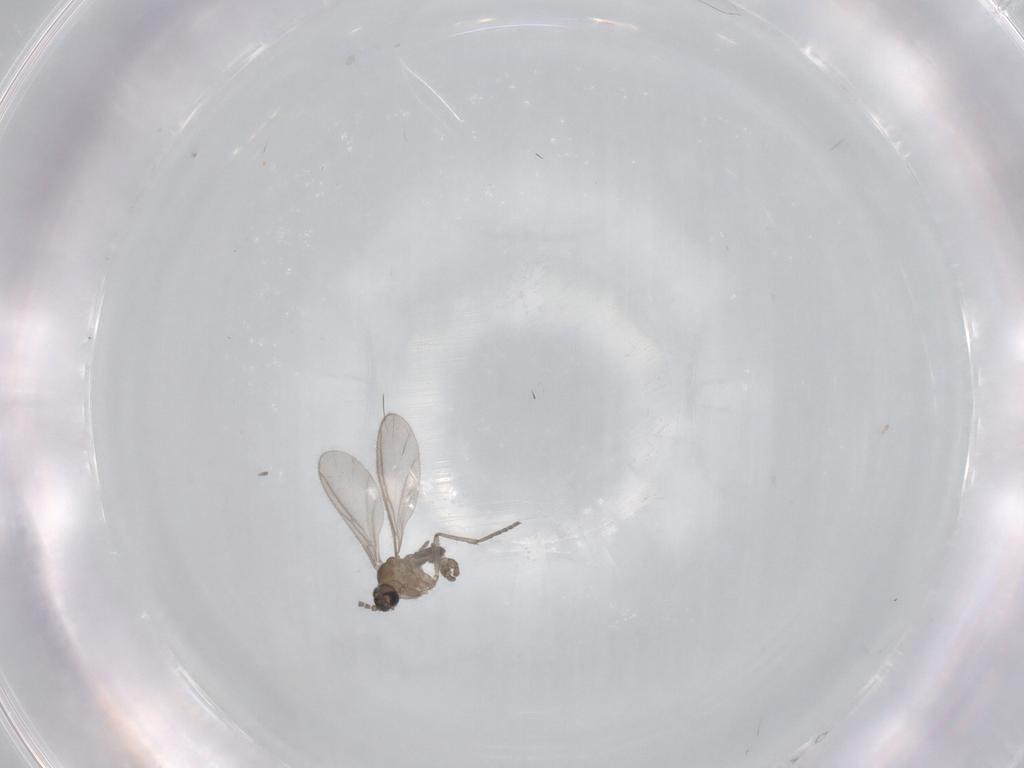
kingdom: Animalia
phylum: Arthropoda
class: Insecta
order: Diptera
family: Sciaridae
